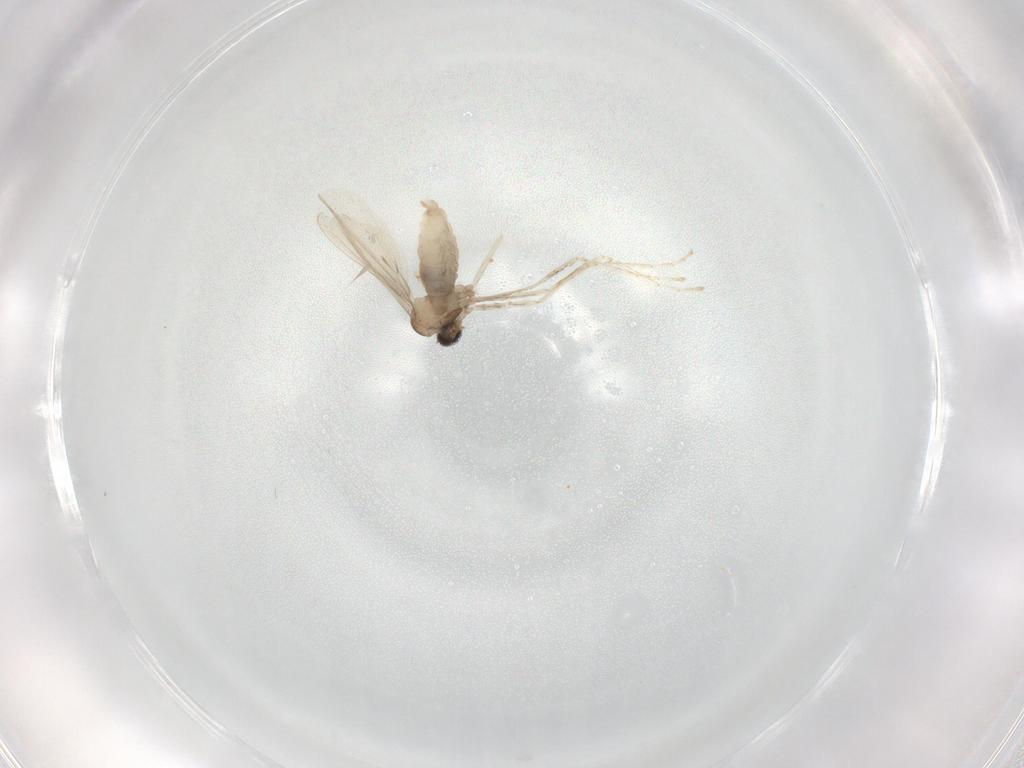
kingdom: Animalia
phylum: Arthropoda
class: Insecta
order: Diptera
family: Cecidomyiidae
